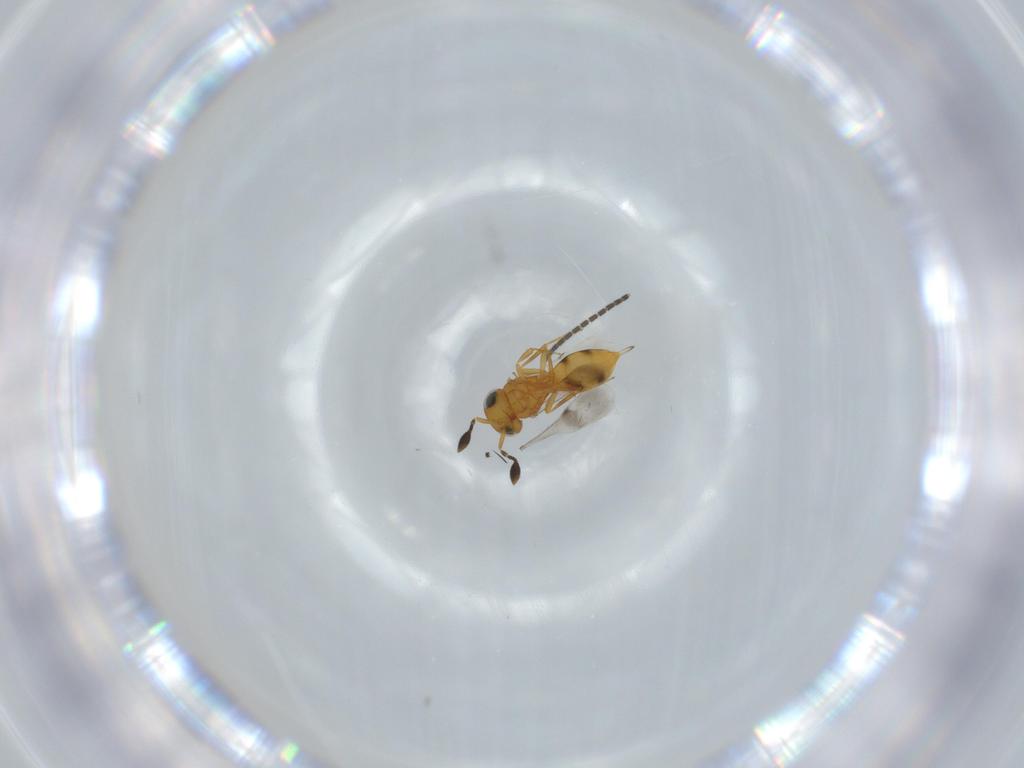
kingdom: Animalia
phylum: Arthropoda
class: Insecta
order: Hymenoptera
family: Scelionidae
